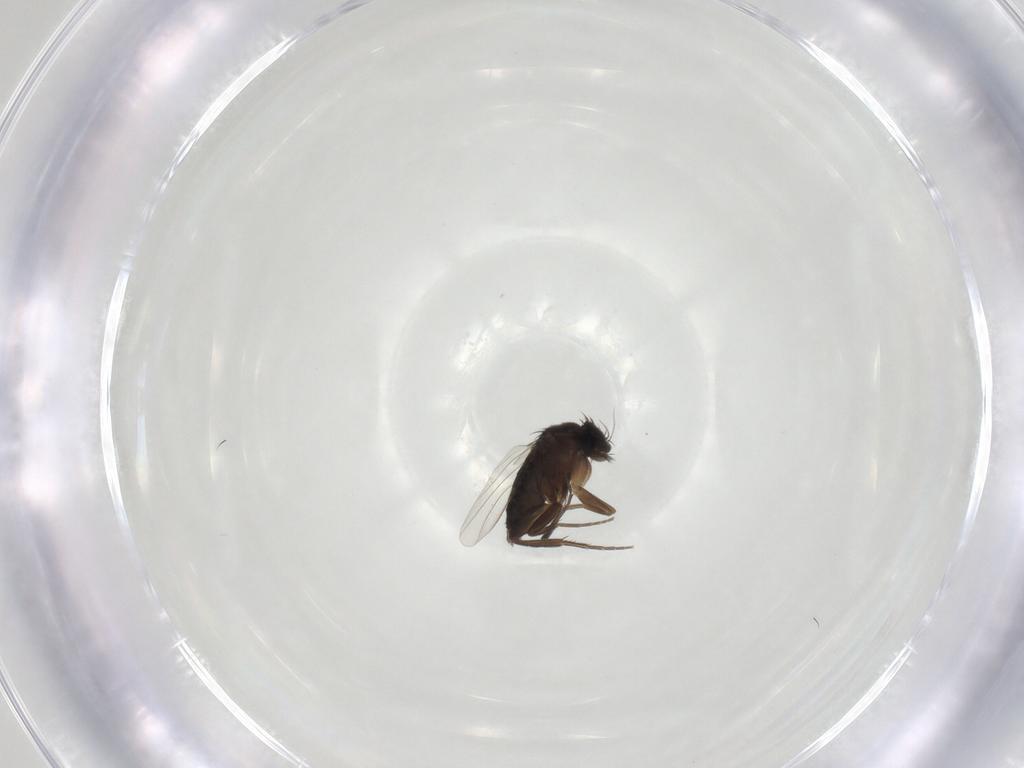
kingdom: Animalia
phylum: Arthropoda
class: Insecta
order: Diptera
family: Phoridae
